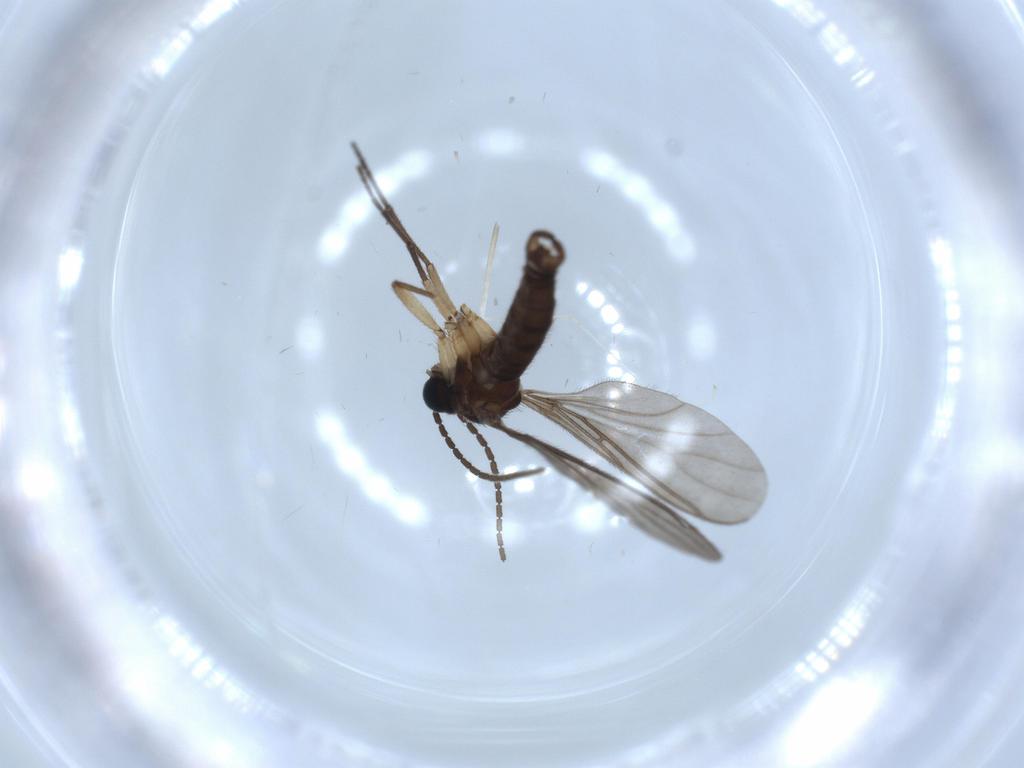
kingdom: Animalia
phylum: Arthropoda
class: Insecta
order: Diptera
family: Sciaridae
